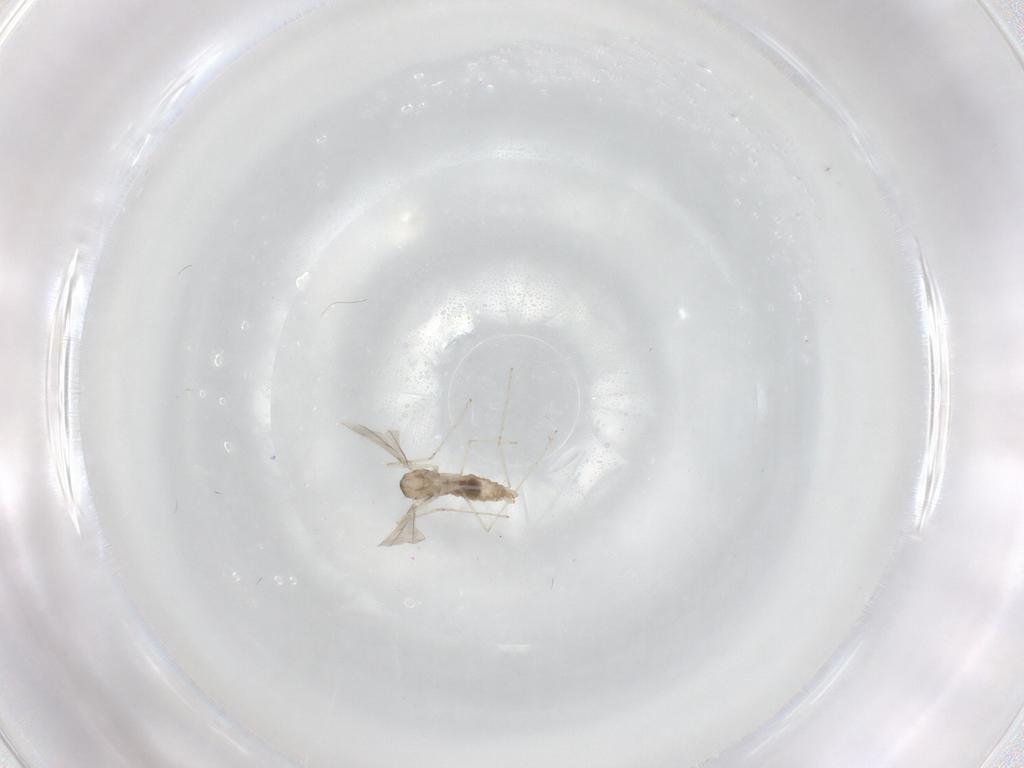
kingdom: Animalia
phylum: Arthropoda
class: Insecta
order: Diptera
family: Cecidomyiidae
